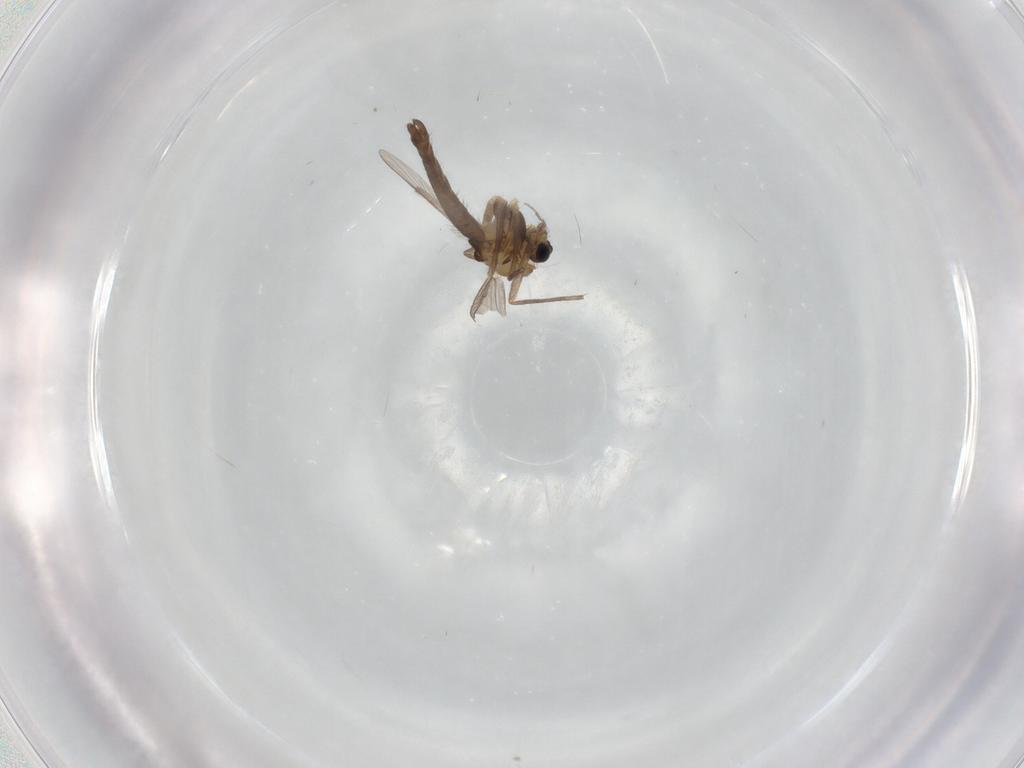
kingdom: Animalia
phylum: Arthropoda
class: Insecta
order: Diptera
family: Chironomidae
